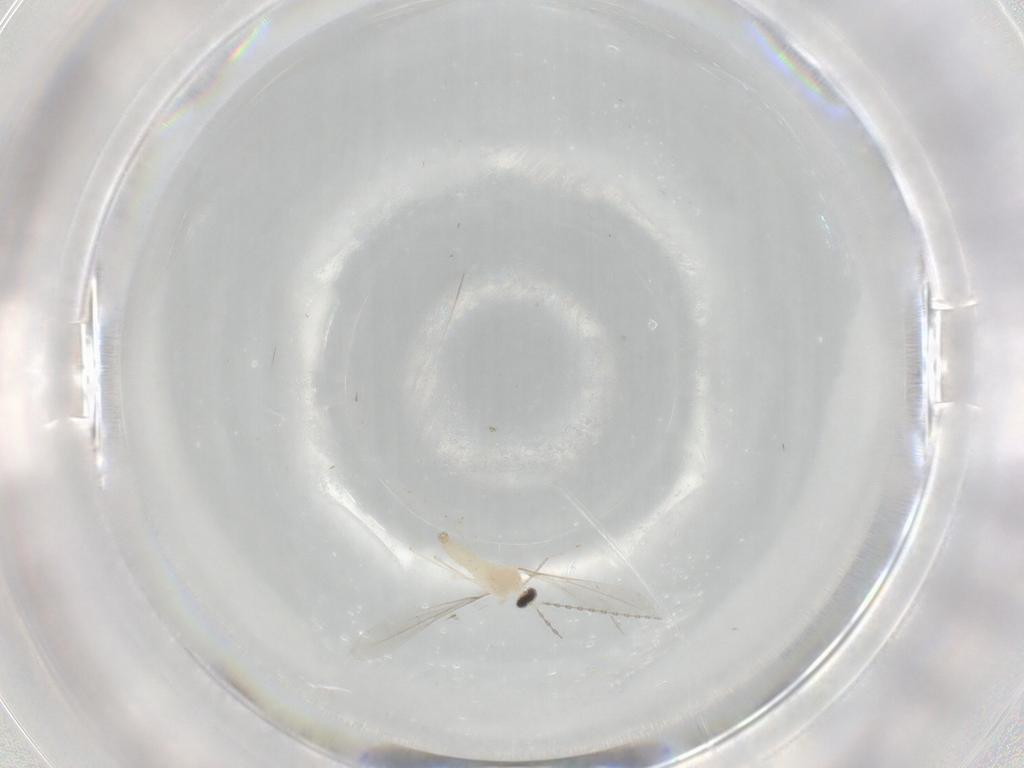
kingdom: Animalia
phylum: Arthropoda
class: Insecta
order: Diptera
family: Cecidomyiidae
